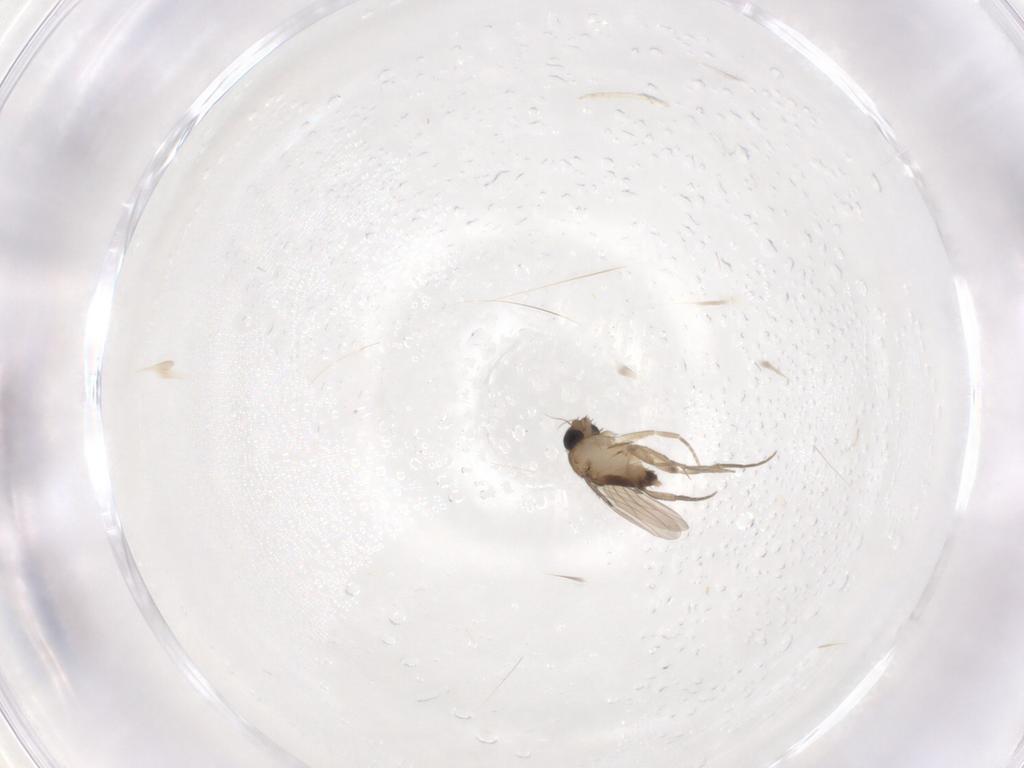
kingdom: Animalia
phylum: Arthropoda
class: Insecta
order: Diptera
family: Phoridae
